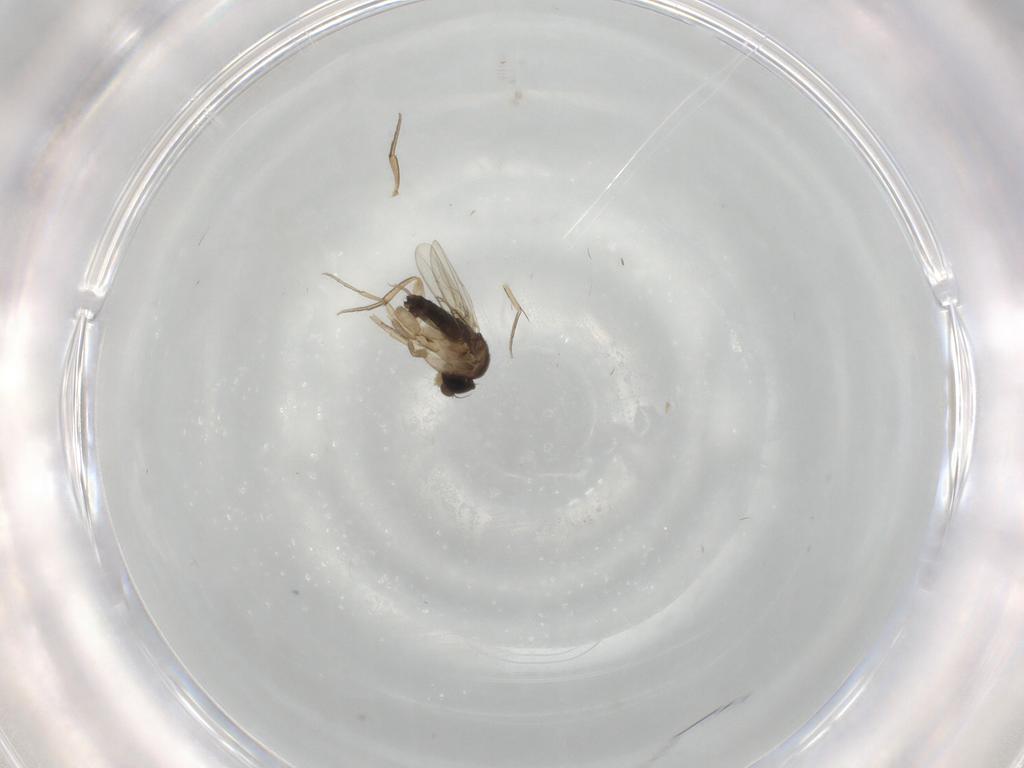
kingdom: Animalia
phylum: Arthropoda
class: Insecta
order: Diptera
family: Phoridae
